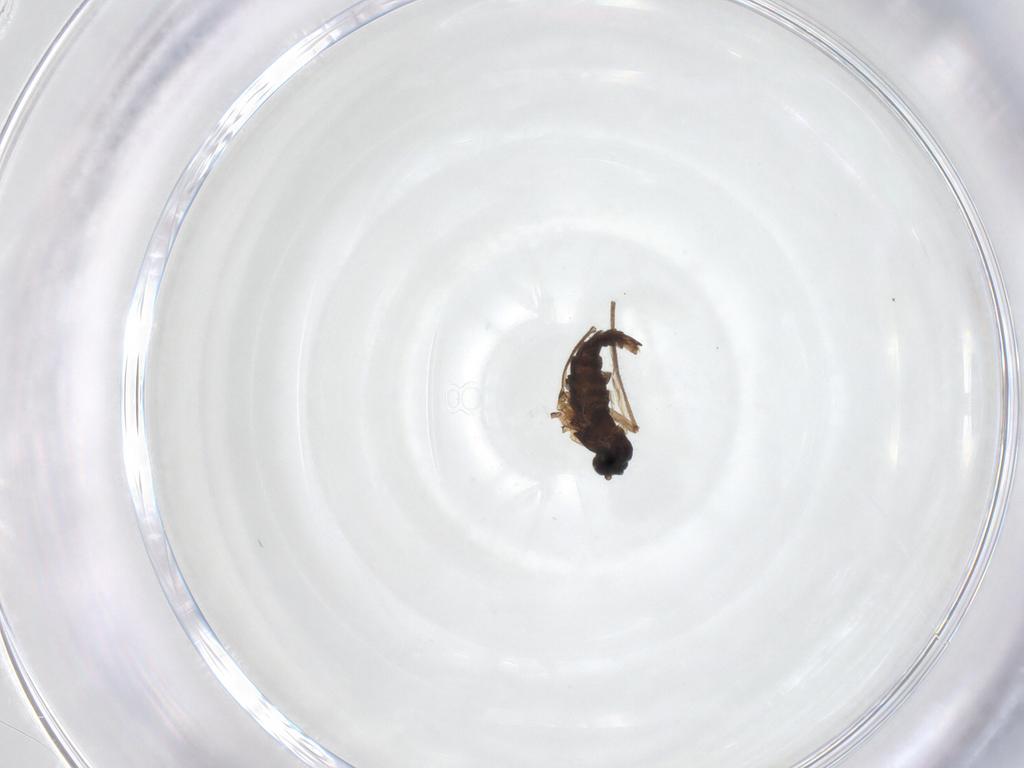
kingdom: Animalia
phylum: Arthropoda
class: Insecta
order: Diptera
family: Sciaridae
